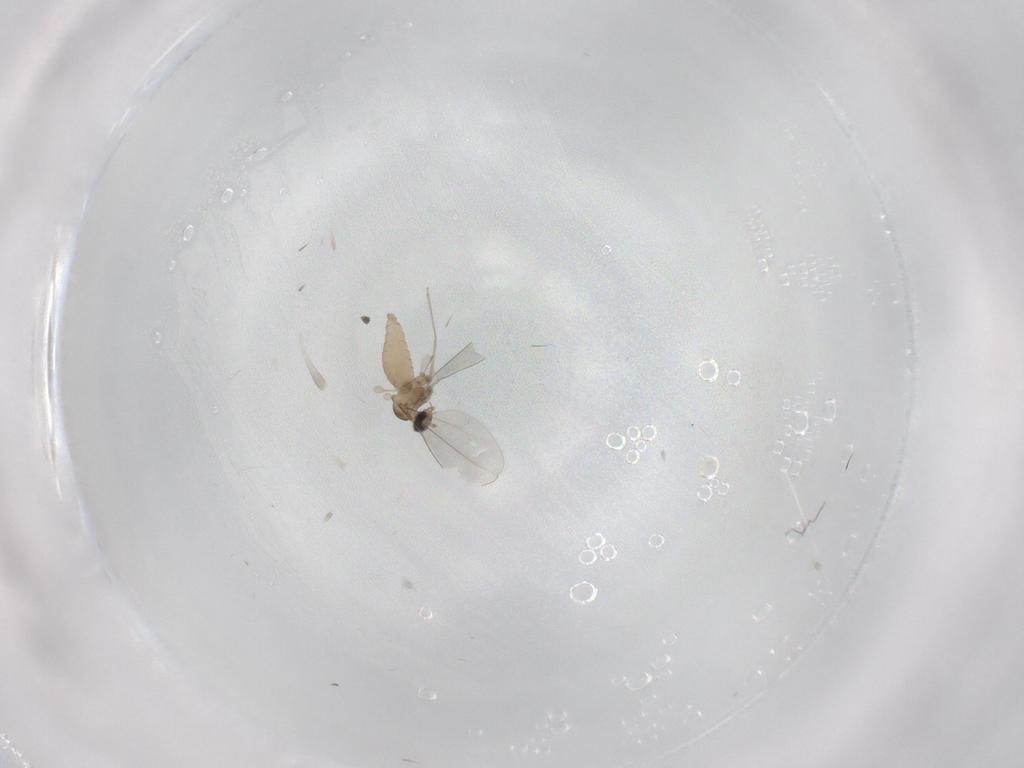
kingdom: Animalia
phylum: Arthropoda
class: Insecta
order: Diptera
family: Cecidomyiidae
